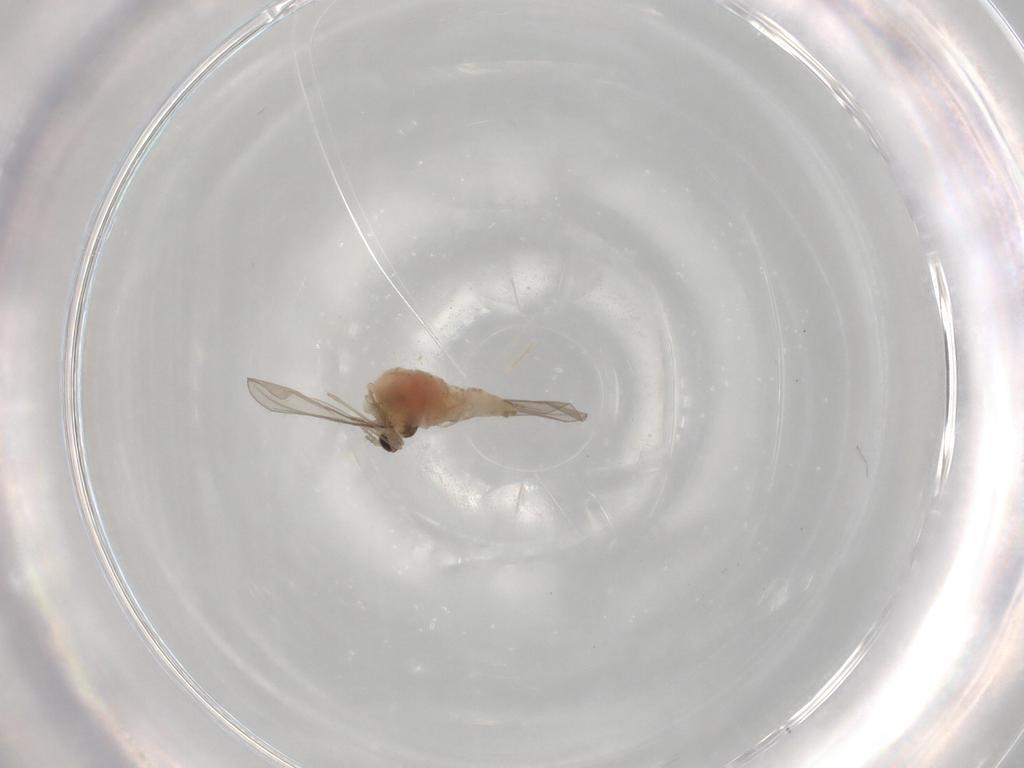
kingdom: Animalia
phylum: Arthropoda
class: Insecta
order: Diptera
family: Cecidomyiidae
